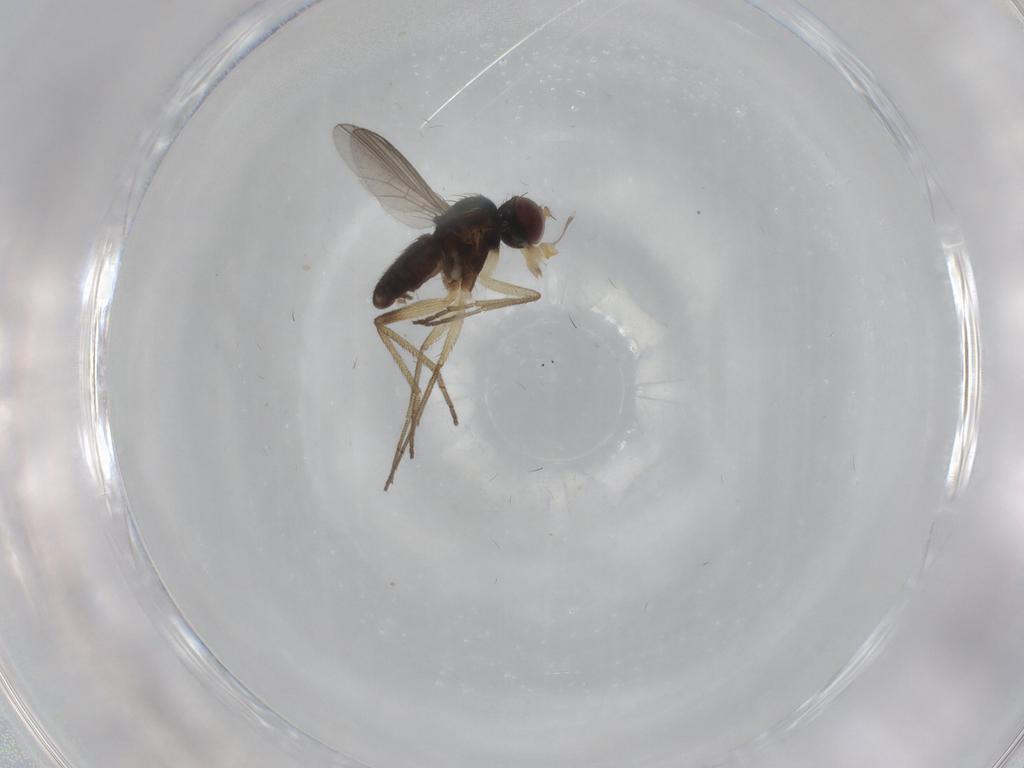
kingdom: Animalia
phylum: Arthropoda
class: Insecta
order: Diptera
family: Dolichopodidae
